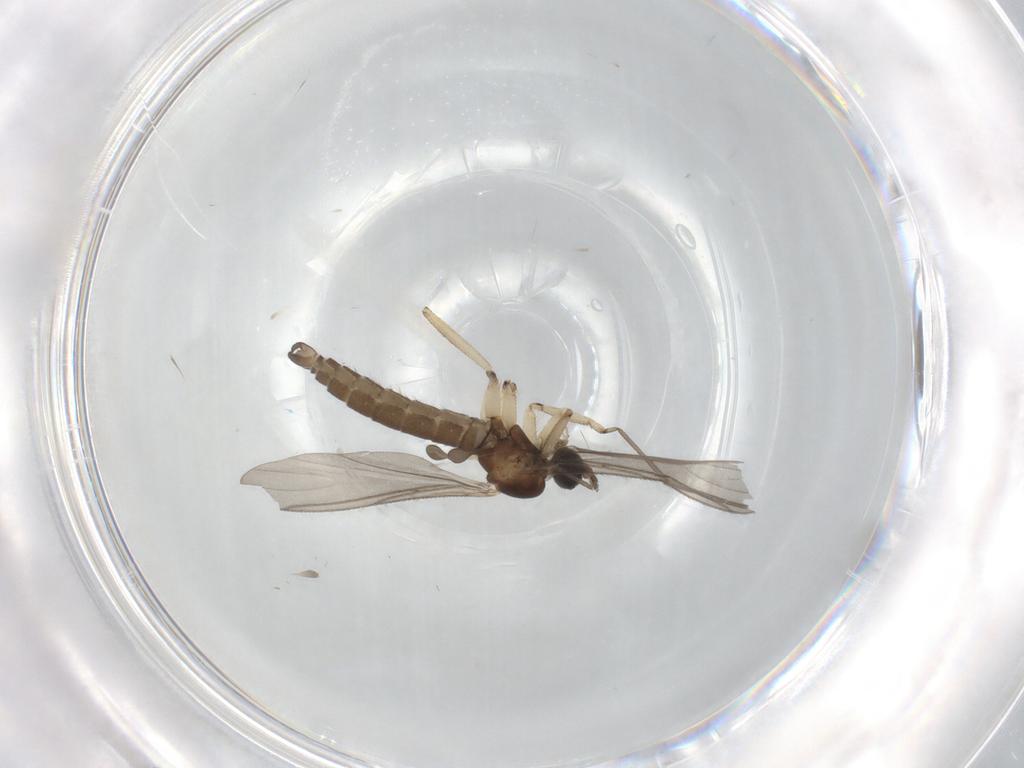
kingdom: Animalia
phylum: Arthropoda
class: Insecta
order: Diptera
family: Sciaridae
